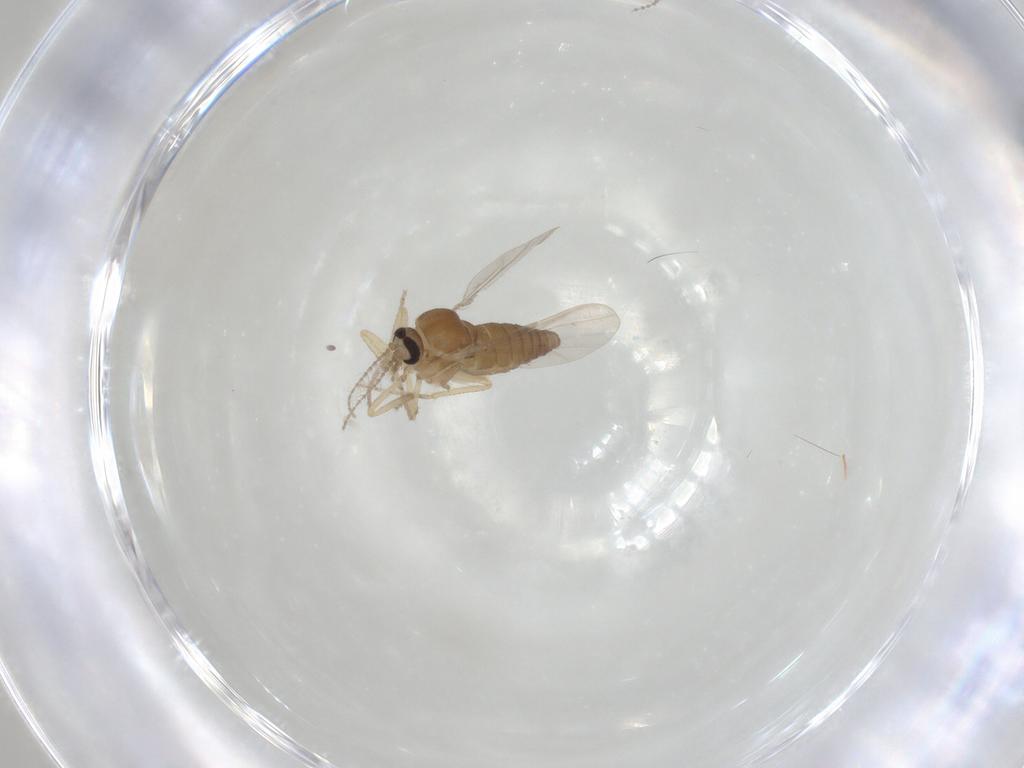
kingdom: Animalia
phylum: Arthropoda
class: Insecta
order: Diptera
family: Ceratopogonidae
